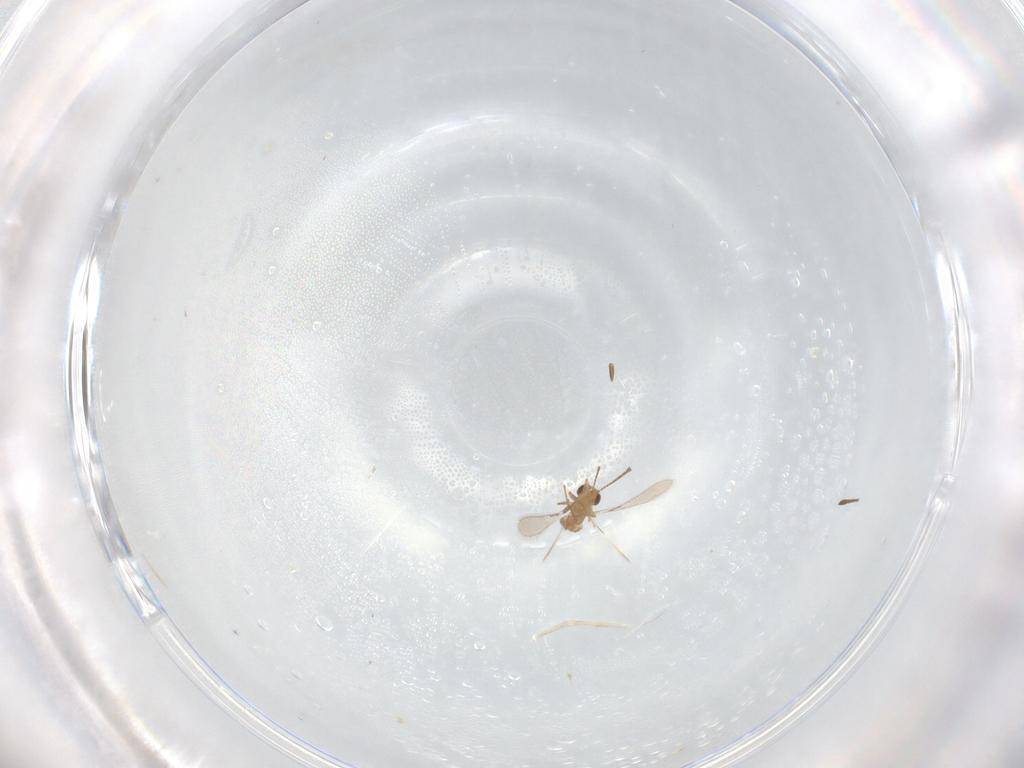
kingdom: Animalia
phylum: Arthropoda
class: Insecta
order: Hymenoptera
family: Mymaridae
